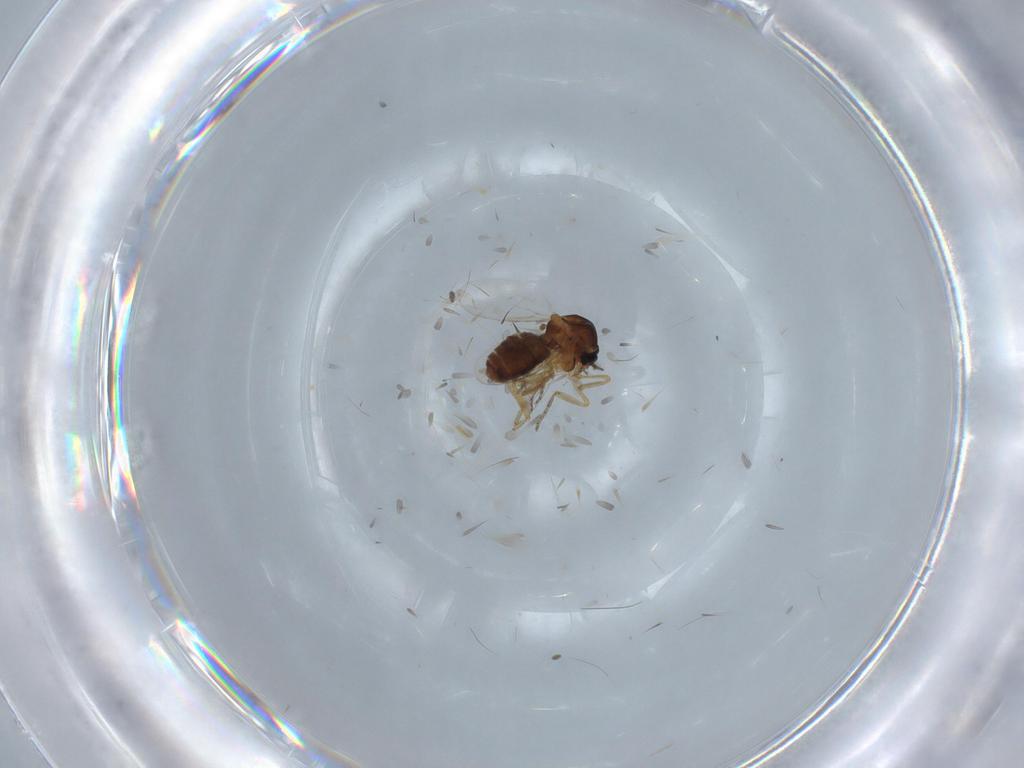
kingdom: Animalia
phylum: Arthropoda
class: Insecta
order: Diptera
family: Ceratopogonidae
